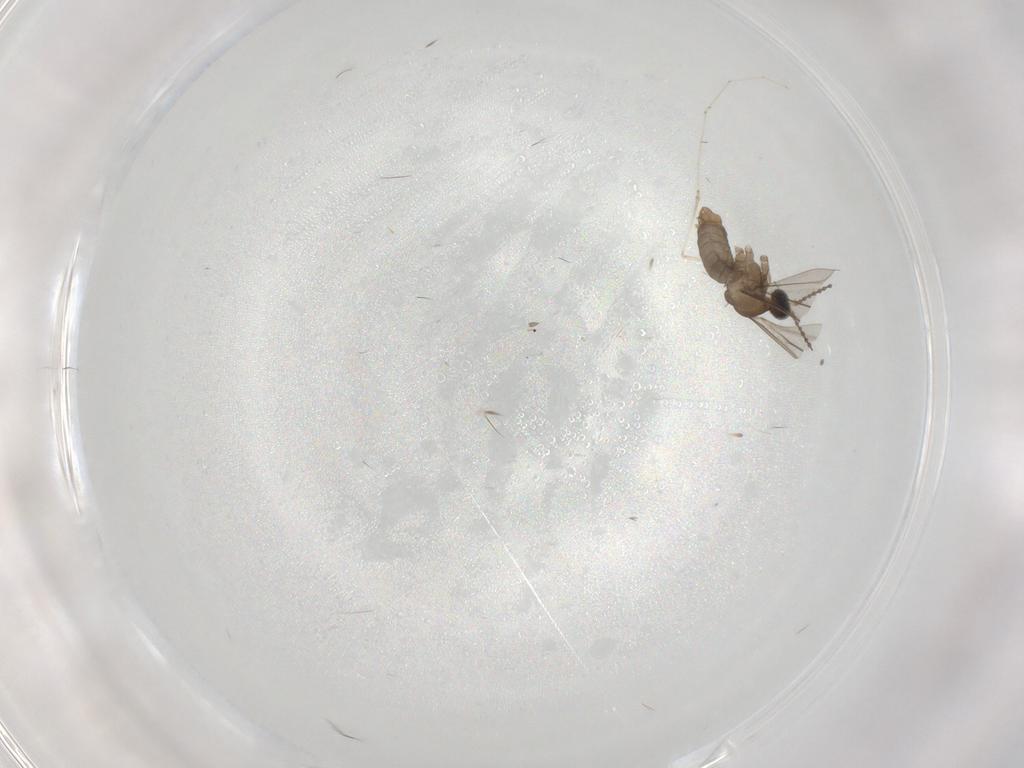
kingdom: Animalia
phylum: Arthropoda
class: Insecta
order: Diptera
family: Cecidomyiidae
